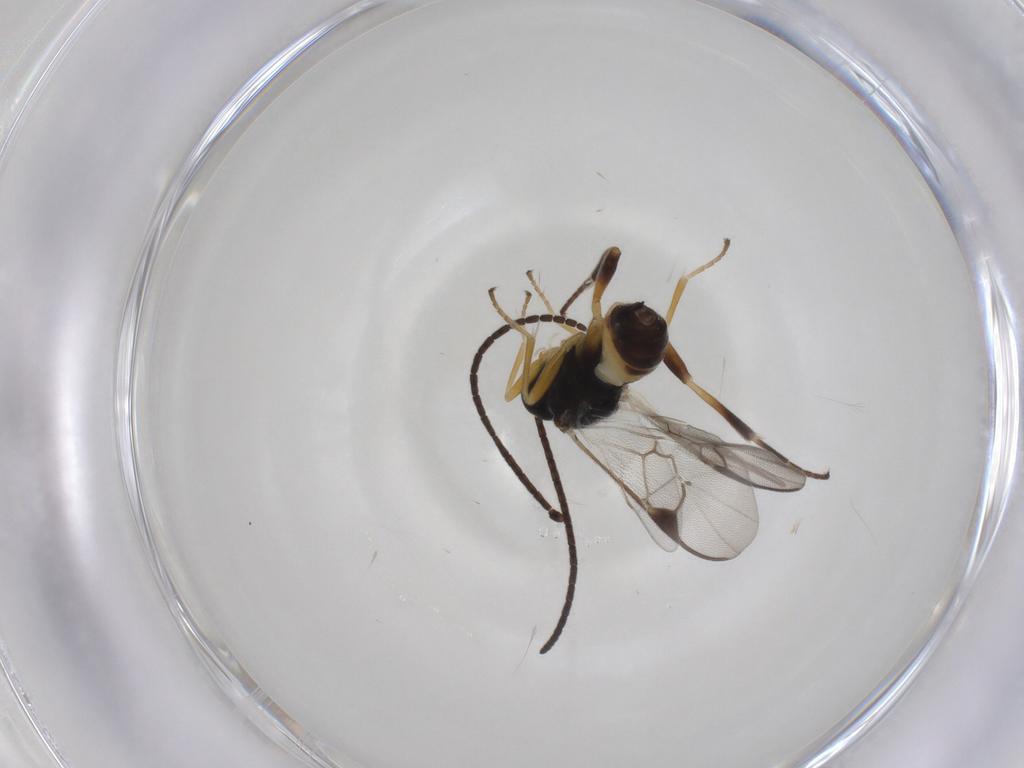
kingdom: Animalia
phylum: Arthropoda
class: Insecta
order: Hymenoptera
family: Braconidae
